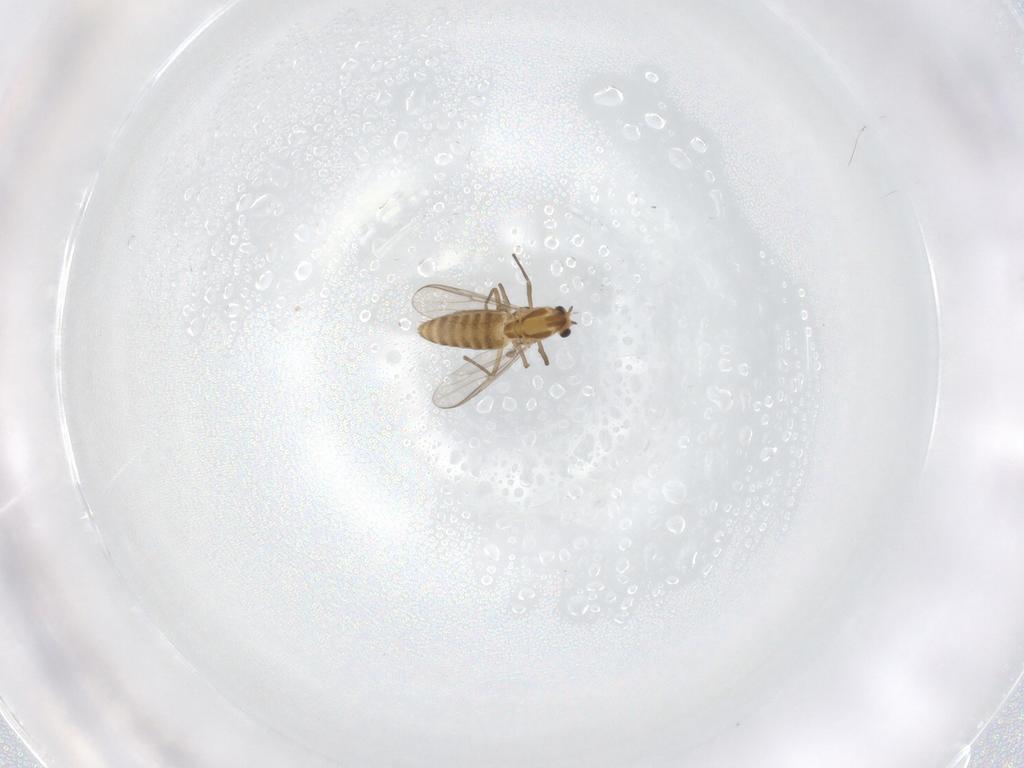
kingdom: Animalia
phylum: Arthropoda
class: Insecta
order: Diptera
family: Chironomidae
